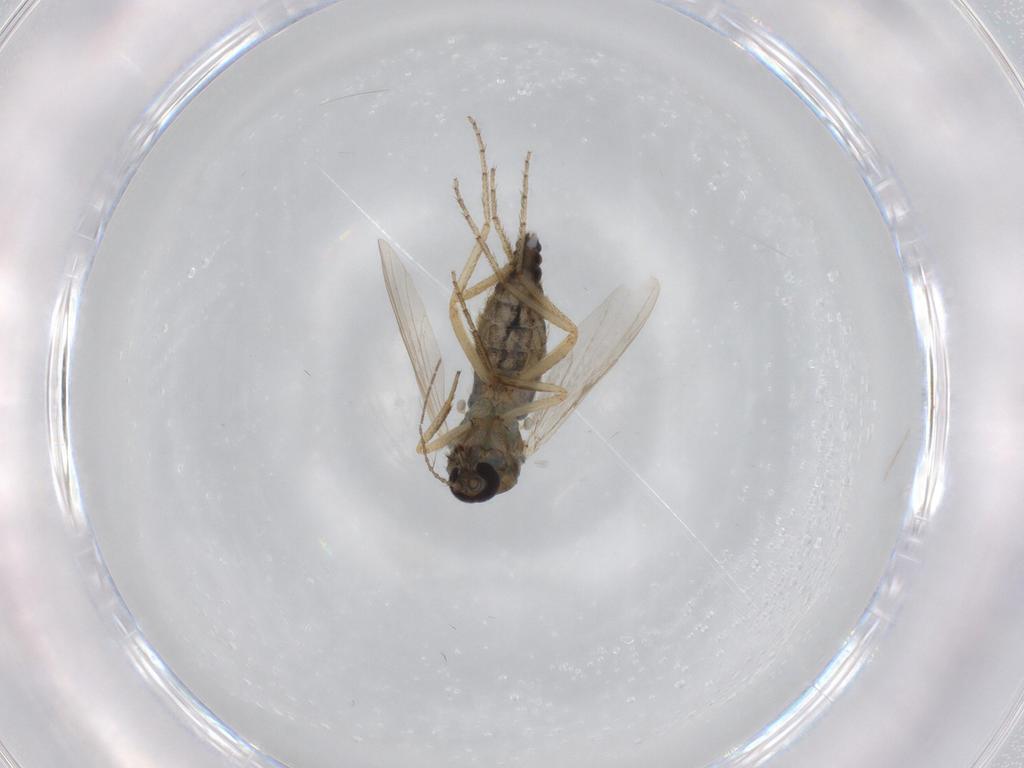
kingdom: Animalia
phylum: Arthropoda
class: Insecta
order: Diptera
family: Ceratopogonidae
